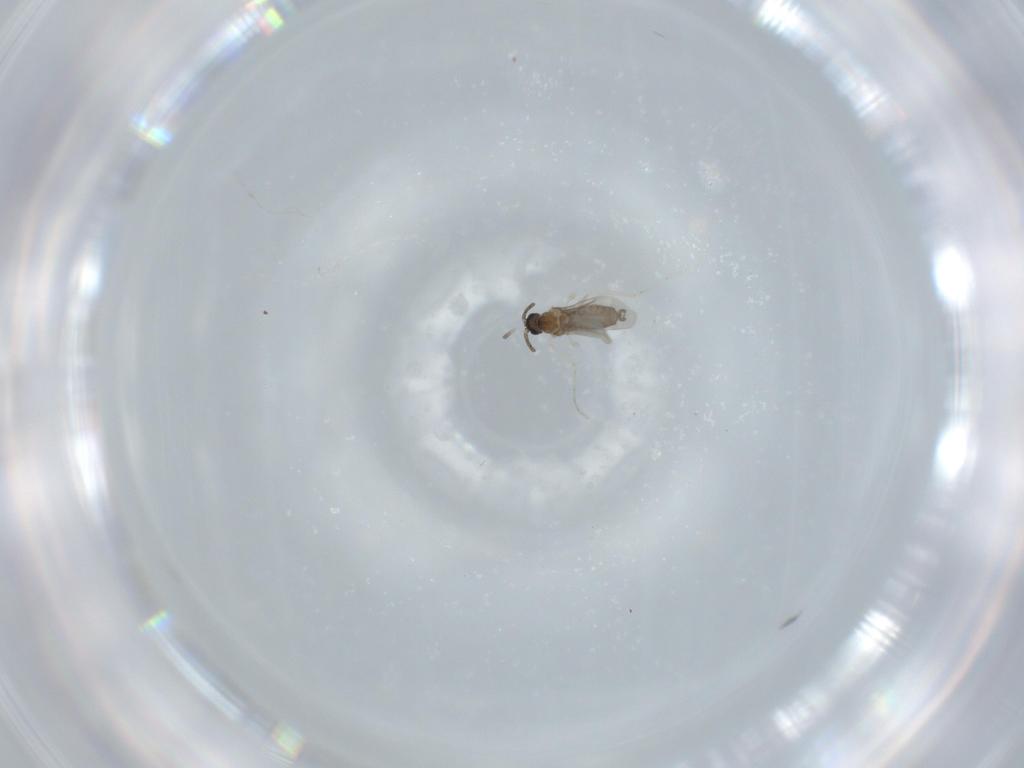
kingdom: Animalia
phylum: Arthropoda
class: Insecta
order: Diptera
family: Cecidomyiidae
